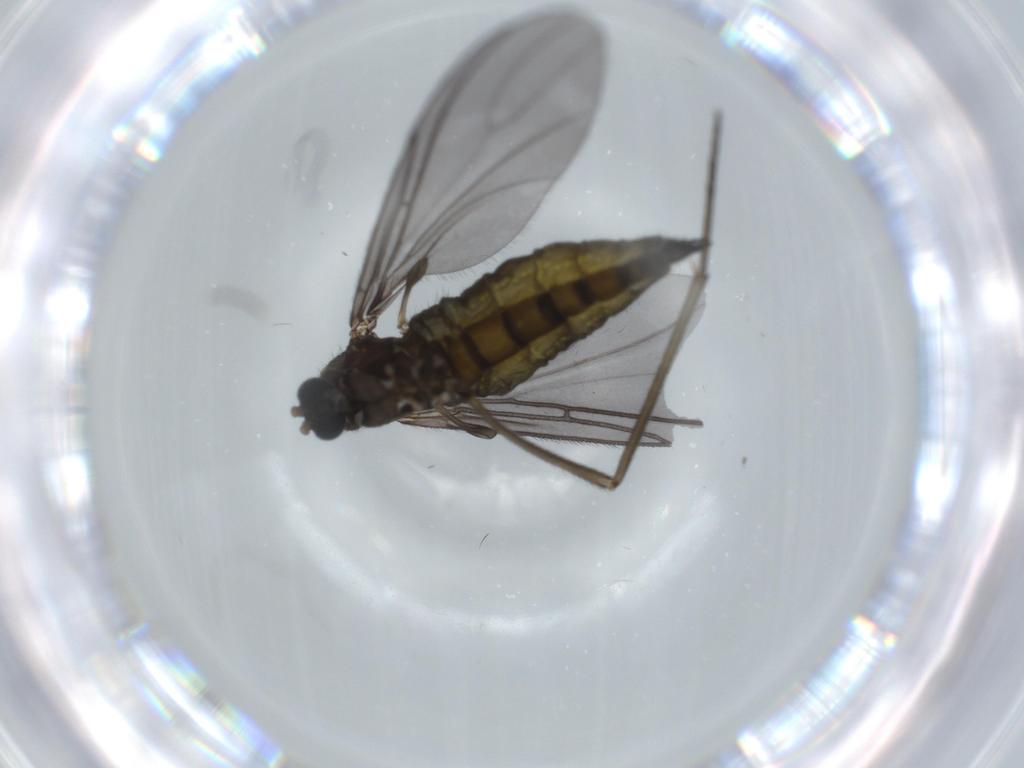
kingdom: Animalia
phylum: Arthropoda
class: Insecta
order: Diptera
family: Sciaridae
